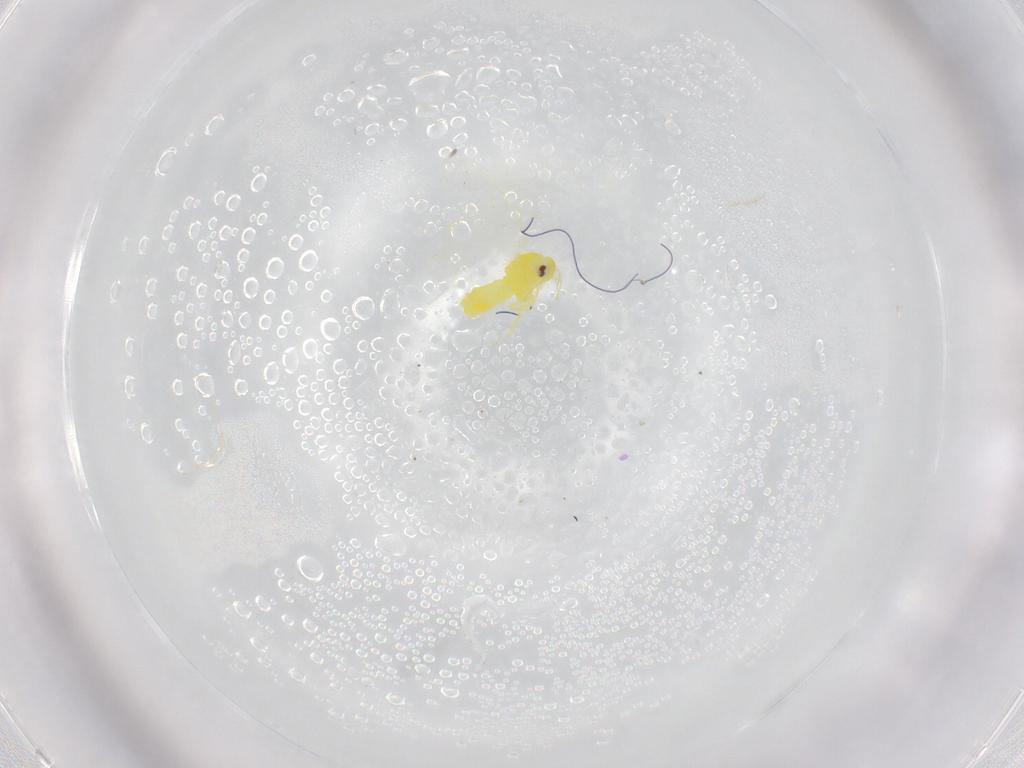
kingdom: Animalia
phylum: Arthropoda
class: Insecta
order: Hemiptera
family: Aleyrodidae
